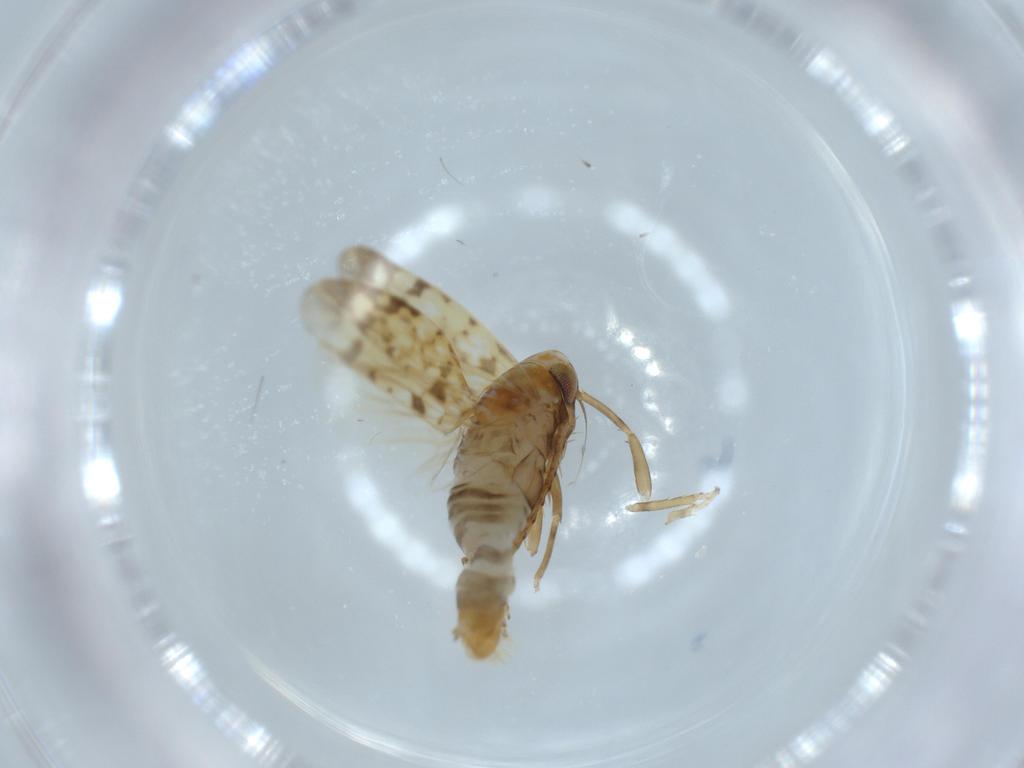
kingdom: Animalia
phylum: Arthropoda
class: Insecta
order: Hemiptera
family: Cicadellidae
